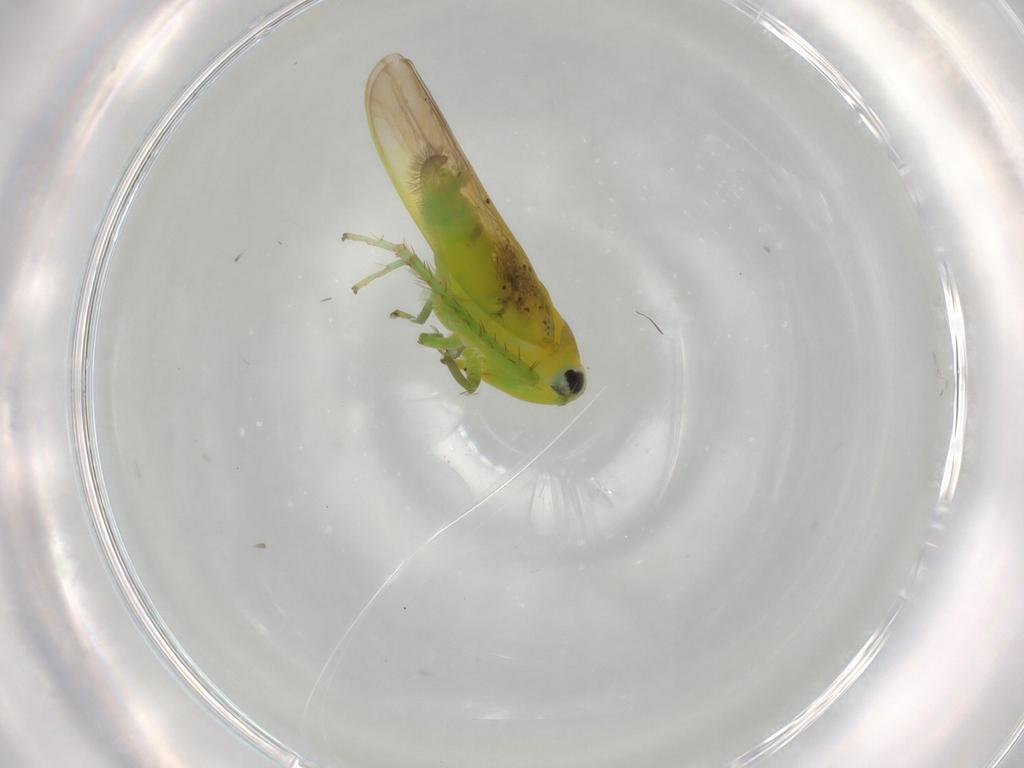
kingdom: Animalia
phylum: Arthropoda
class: Insecta
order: Hemiptera
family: Cicadellidae
